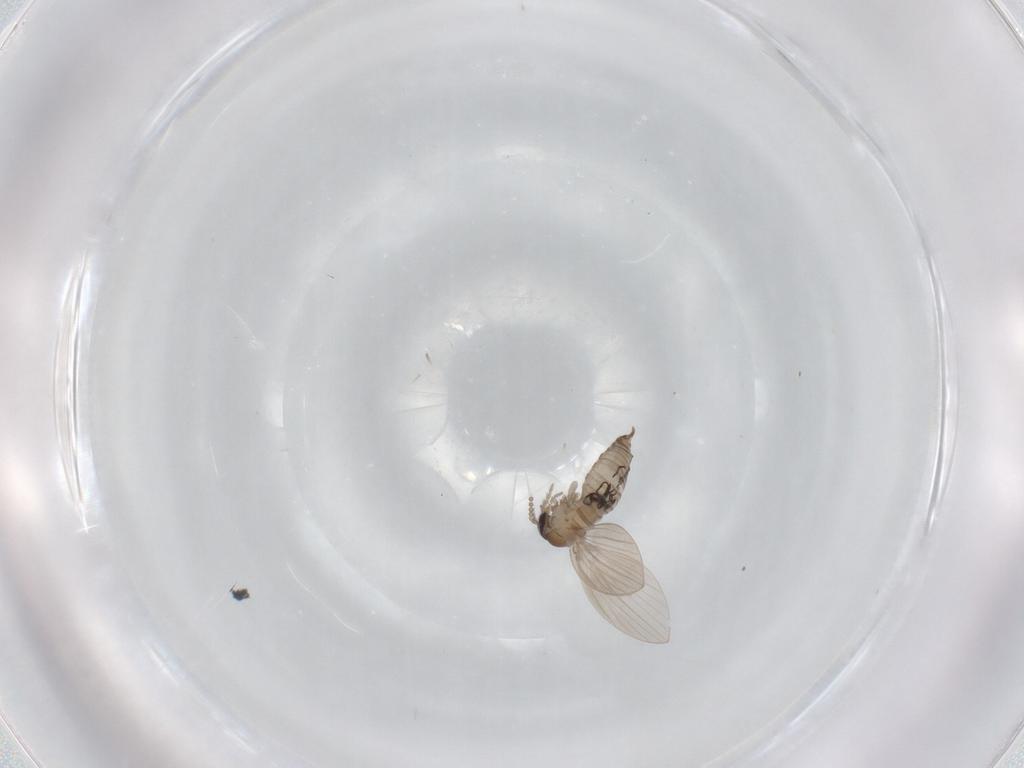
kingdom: Animalia
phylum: Arthropoda
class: Insecta
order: Diptera
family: Psychodidae
